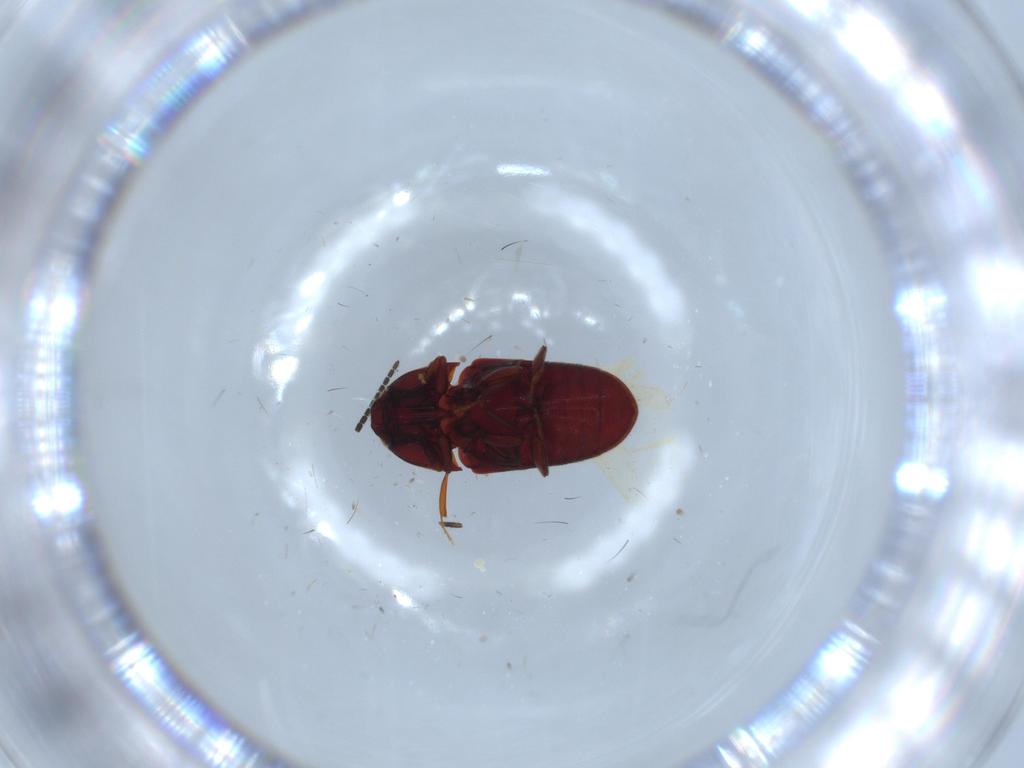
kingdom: Animalia
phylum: Arthropoda
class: Insecta
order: Coleoptera
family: Throscidae
